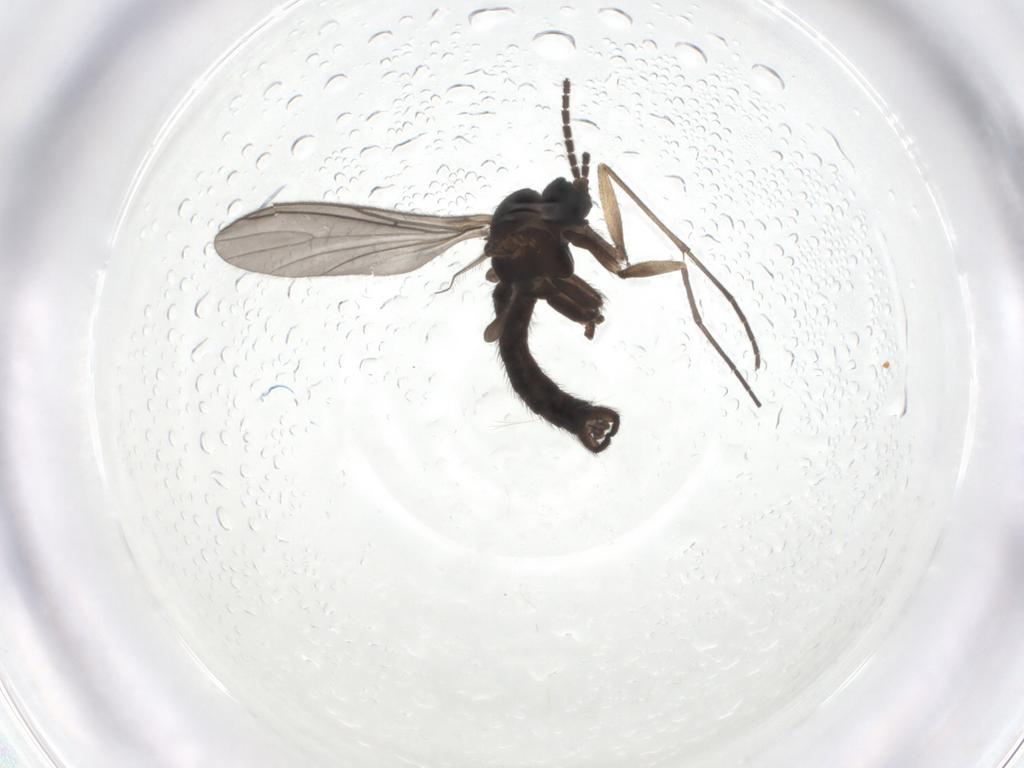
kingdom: Animalia
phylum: Arthropoda
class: Insecta
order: Diptera
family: Sciaridae
